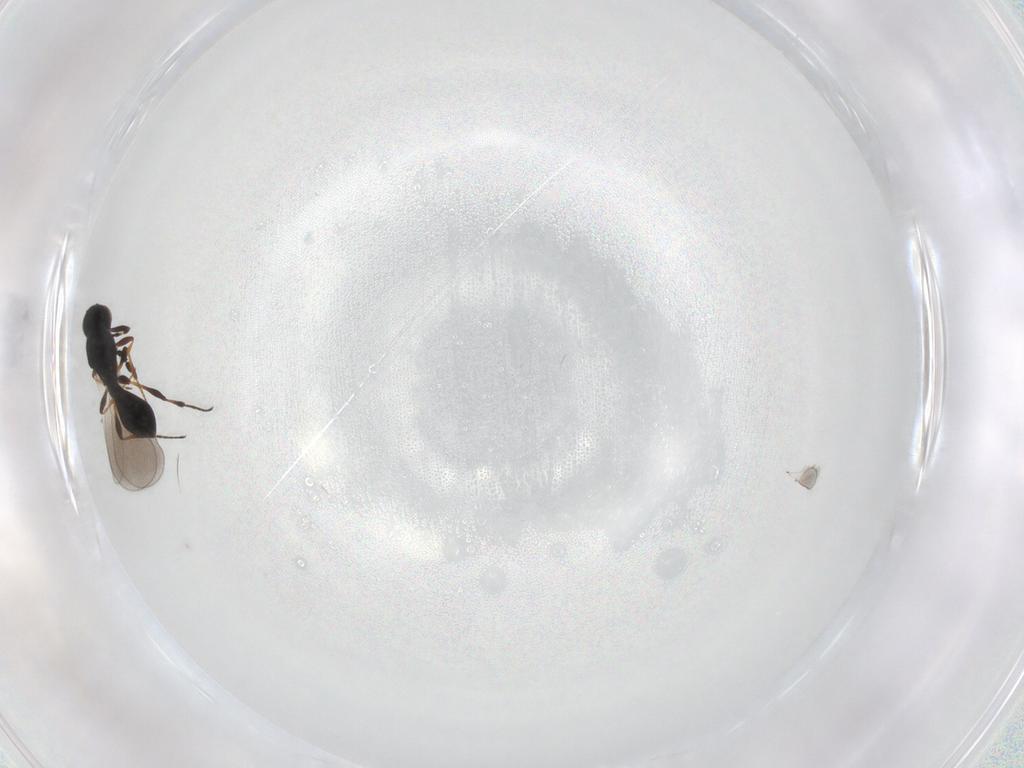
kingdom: Animalia
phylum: Arthropoda
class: Insecta
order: Hymenoptera
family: Platygastridae
